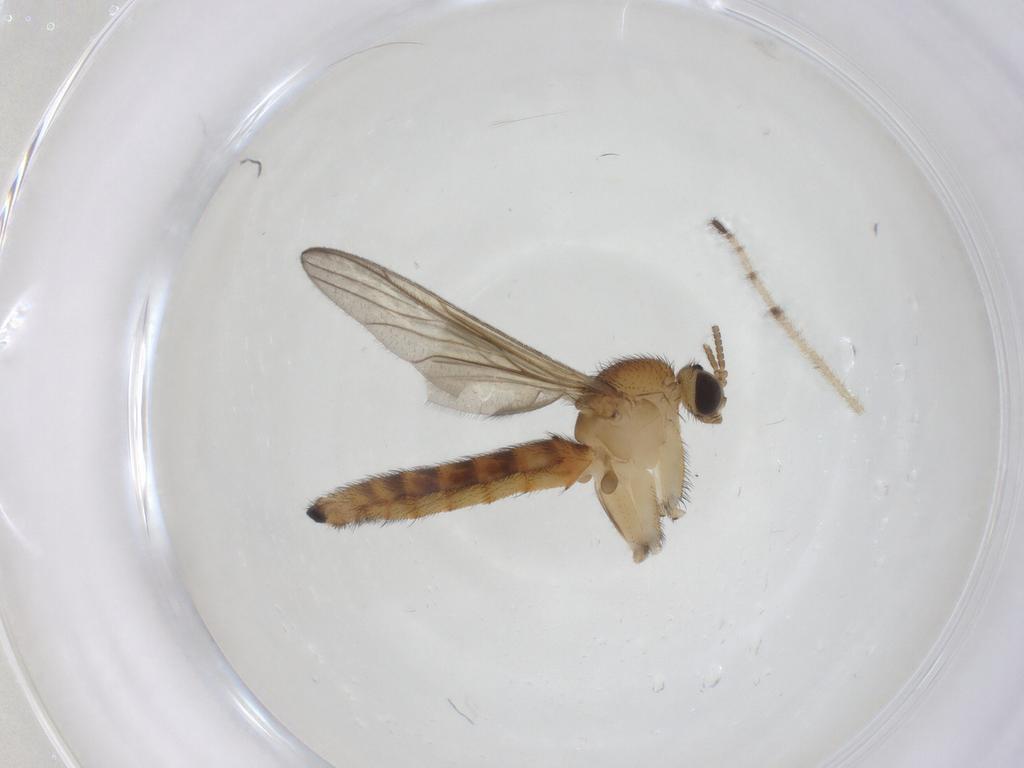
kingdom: Animalia
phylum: Arthropoda
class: Insecta
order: Diptera
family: Keroplatidae
